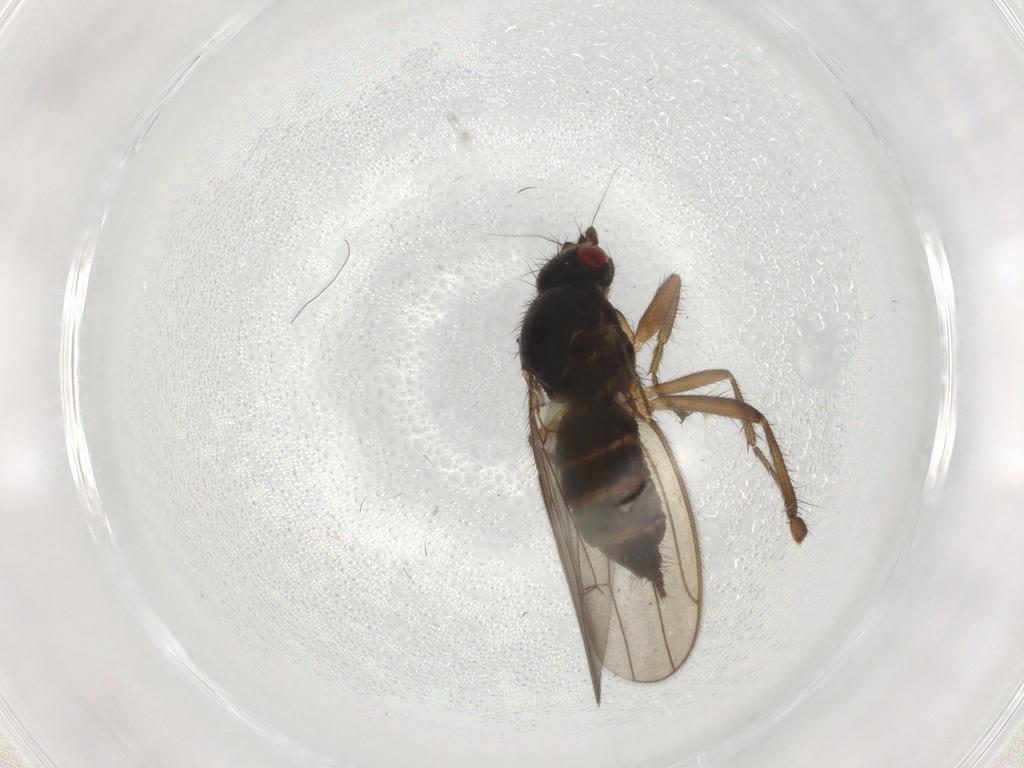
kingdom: Animalia
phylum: Arthropoda
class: Insecta
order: Diptera
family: Sphaeroceridae
